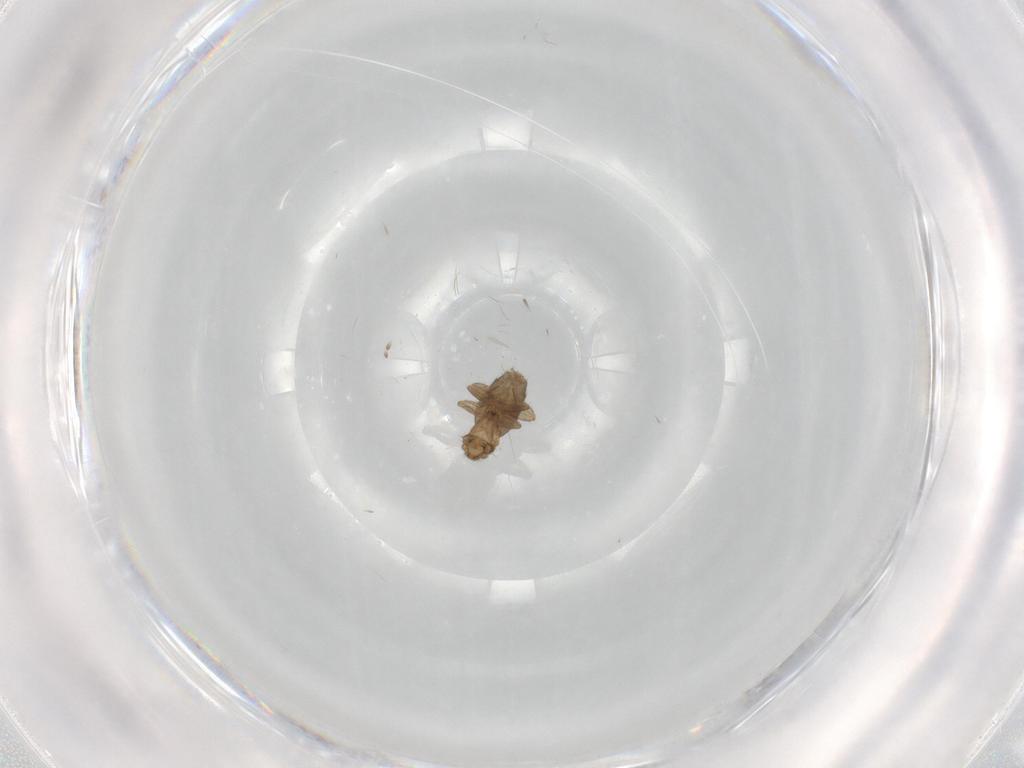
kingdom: Animalia
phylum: Arthropoda
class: Insecta
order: Diptera
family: Phoridae
